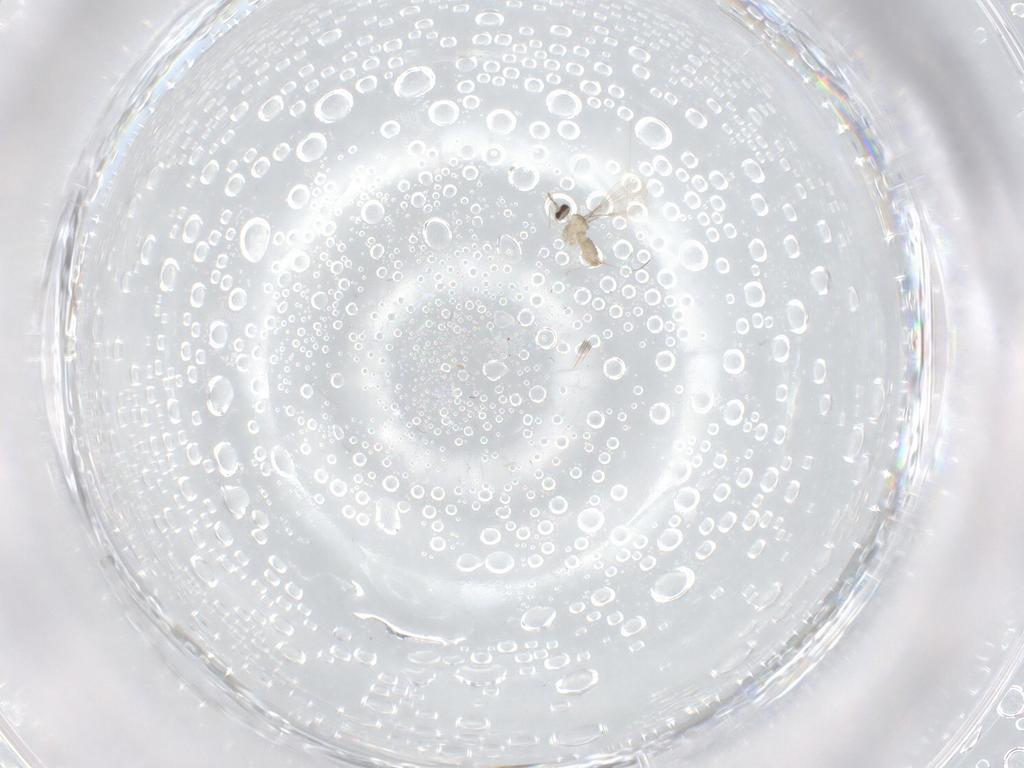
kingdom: Animalia
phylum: Arthropoda
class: Insecta
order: Diptera
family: Cecidomyiidae
